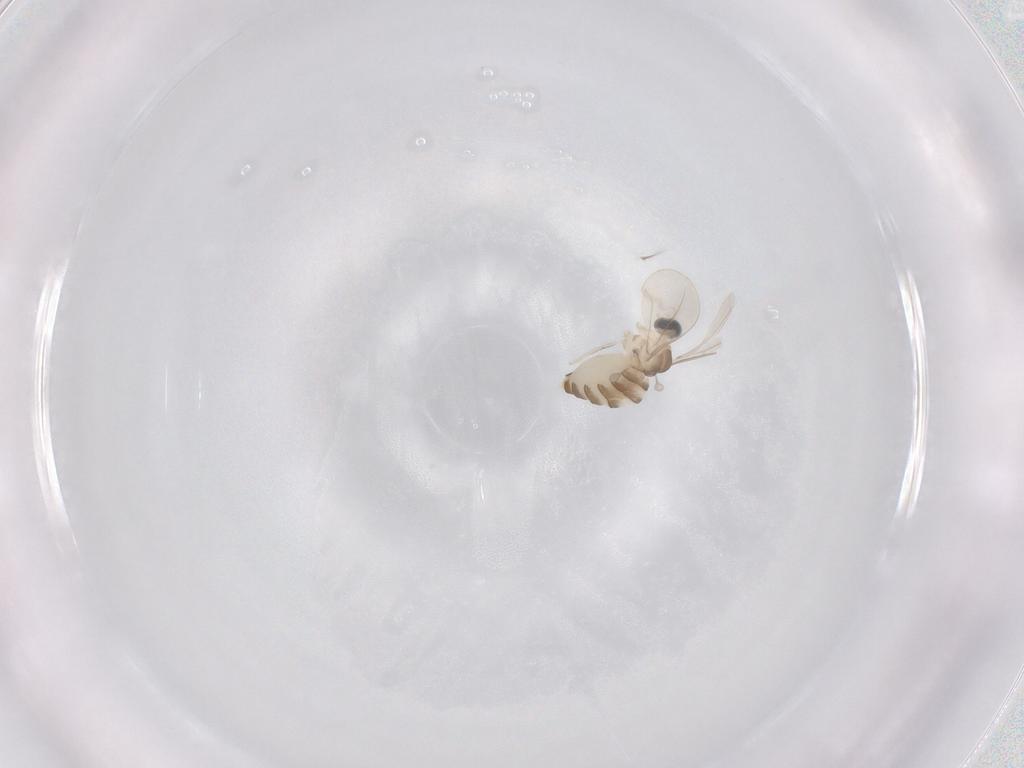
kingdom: Animalia
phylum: Arthropoda
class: Insecta
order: Diptera
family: Cecidomyiidae
